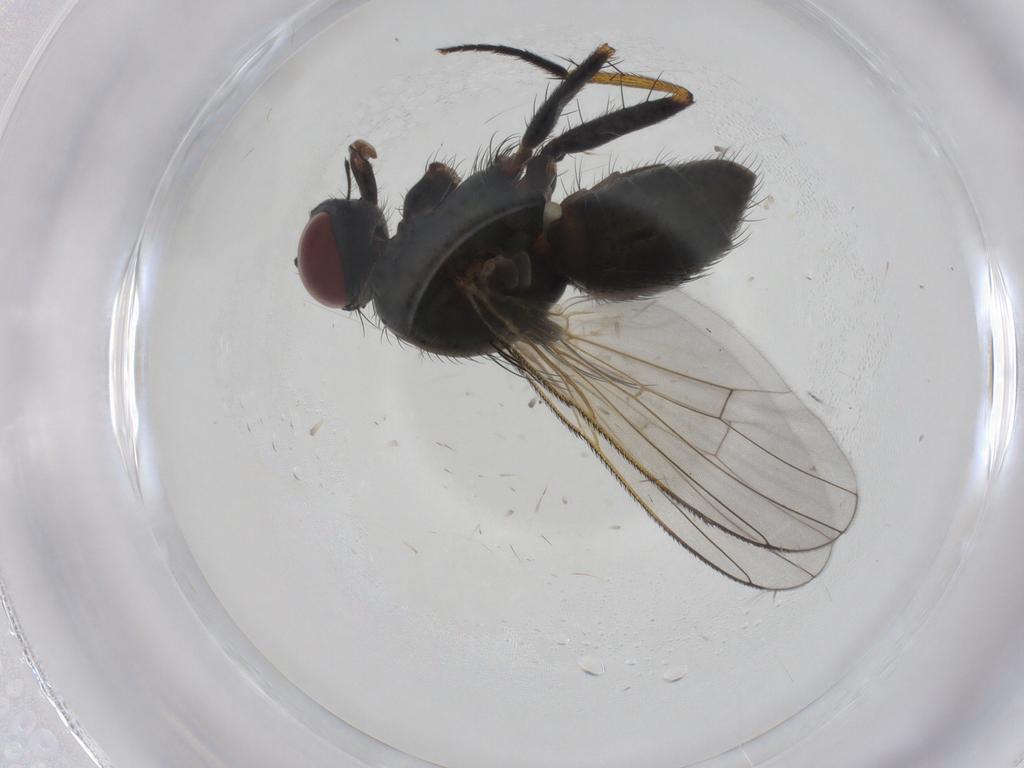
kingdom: Animalia
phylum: Arthropoda
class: Insecta
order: Diptera
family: Muscidae
